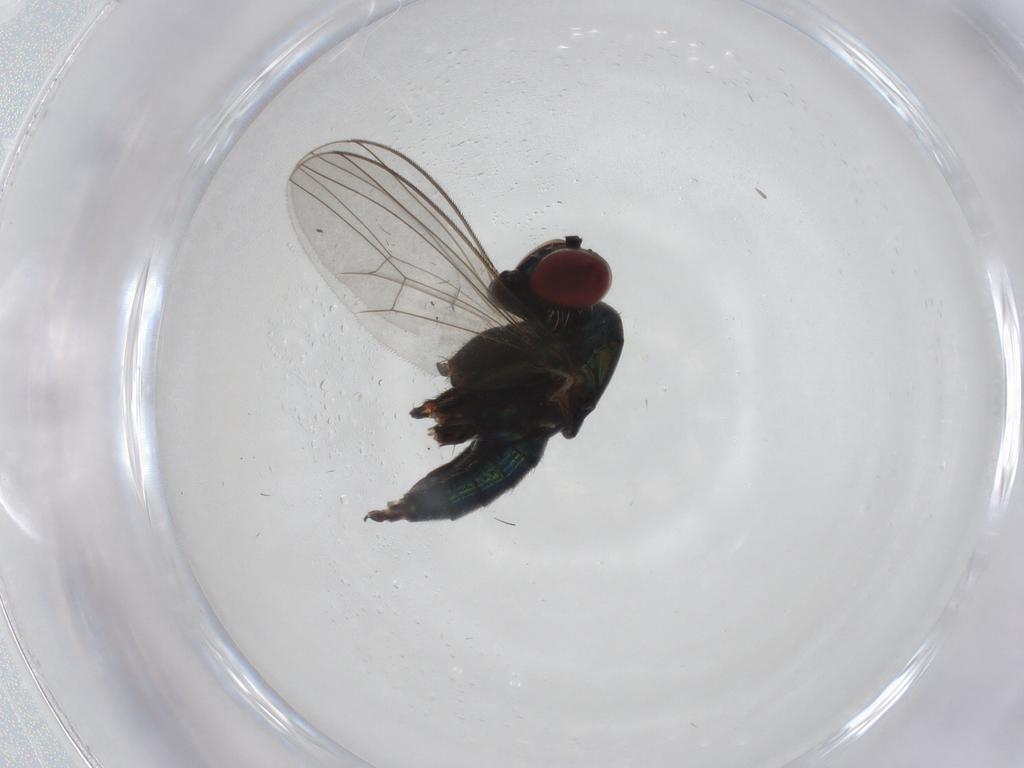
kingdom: Animalia
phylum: Arthropoda
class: Insecta
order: Diptera
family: Dolichopodidae
